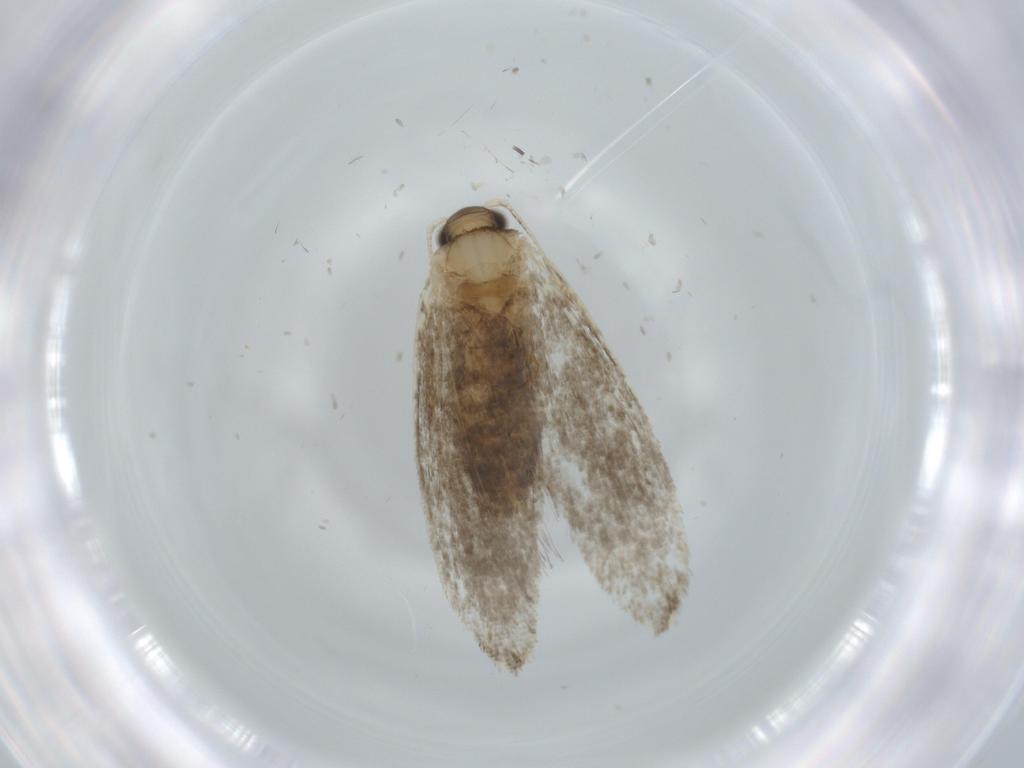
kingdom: Animalia
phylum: Arthropoda
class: Insecta
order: Lepidoptera
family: Tineidae
